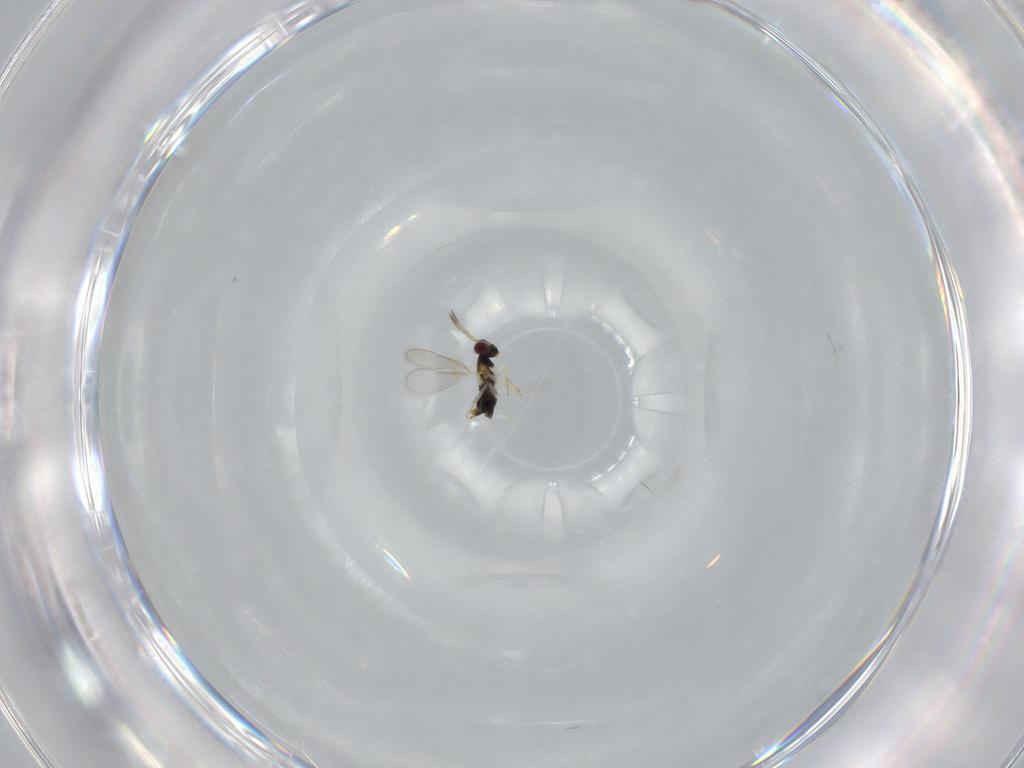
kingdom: Animalia
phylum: Arthropoda
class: Insecta
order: Hymenoptera
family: Aphelinidae
